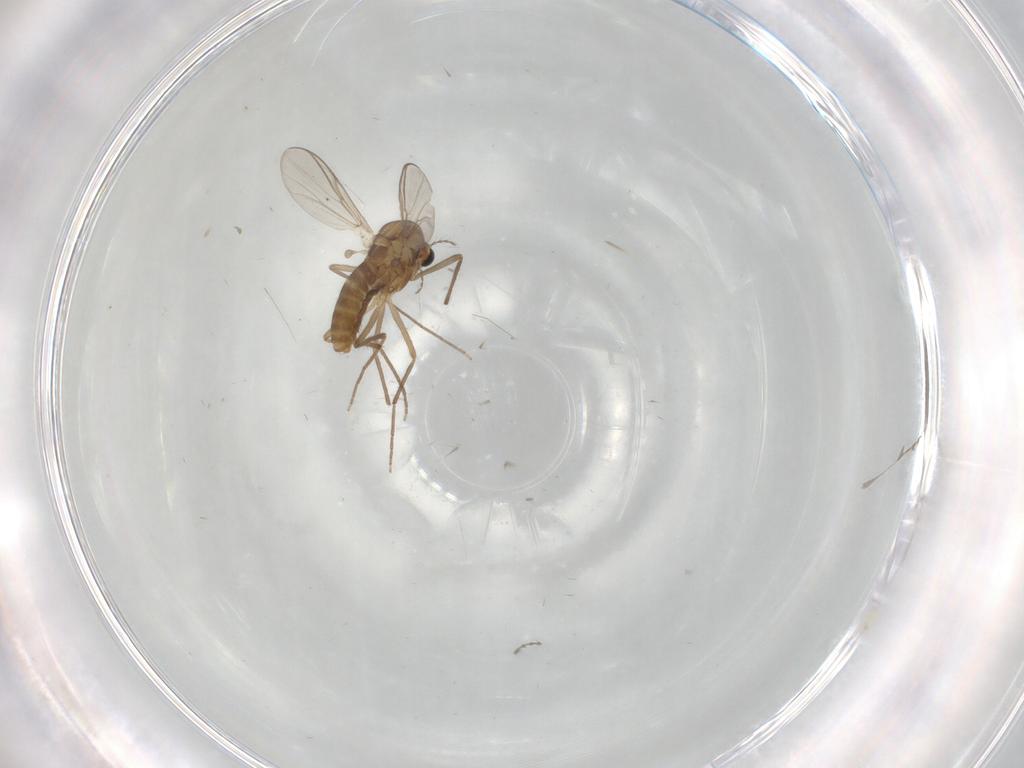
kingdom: Animalia
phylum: Arthropoda
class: Insecta
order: Diptera
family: Chironomidae
